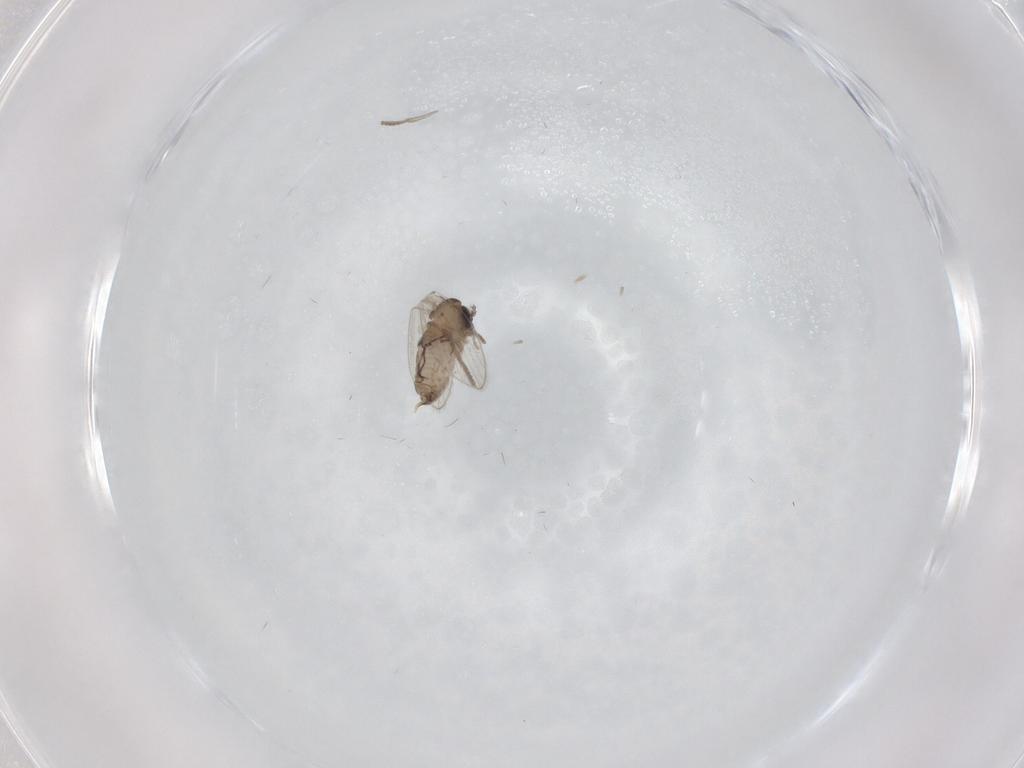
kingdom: Animalia
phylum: Arthropoda
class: Insecta
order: Diptera
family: Psychodidae
